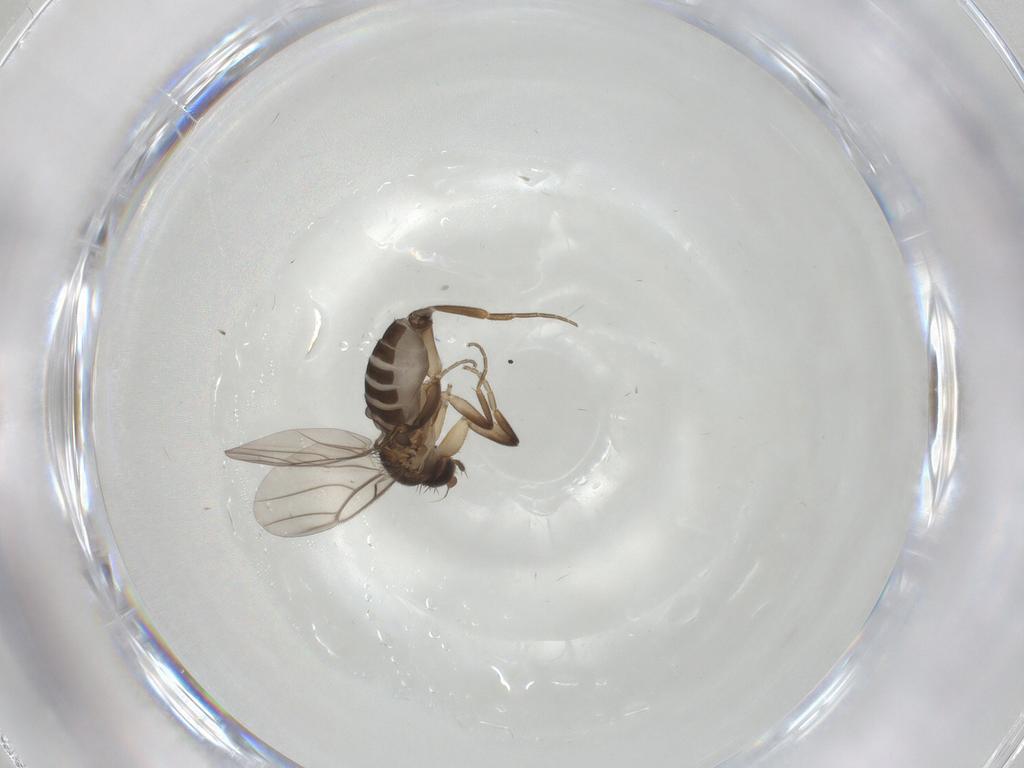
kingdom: Animalia
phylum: Arthropoda
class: Insecta
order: Diptera
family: Phoridae
